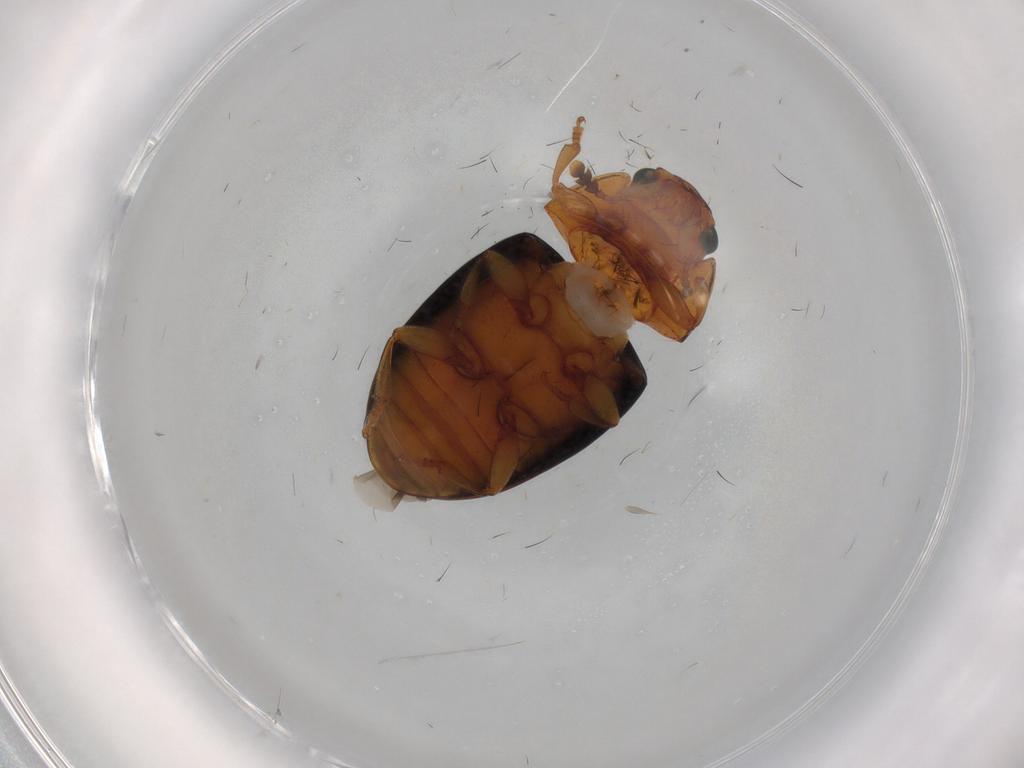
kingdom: Animalia
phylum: Arthropoda
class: Insecta
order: Coleoptera
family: Erotylidae
